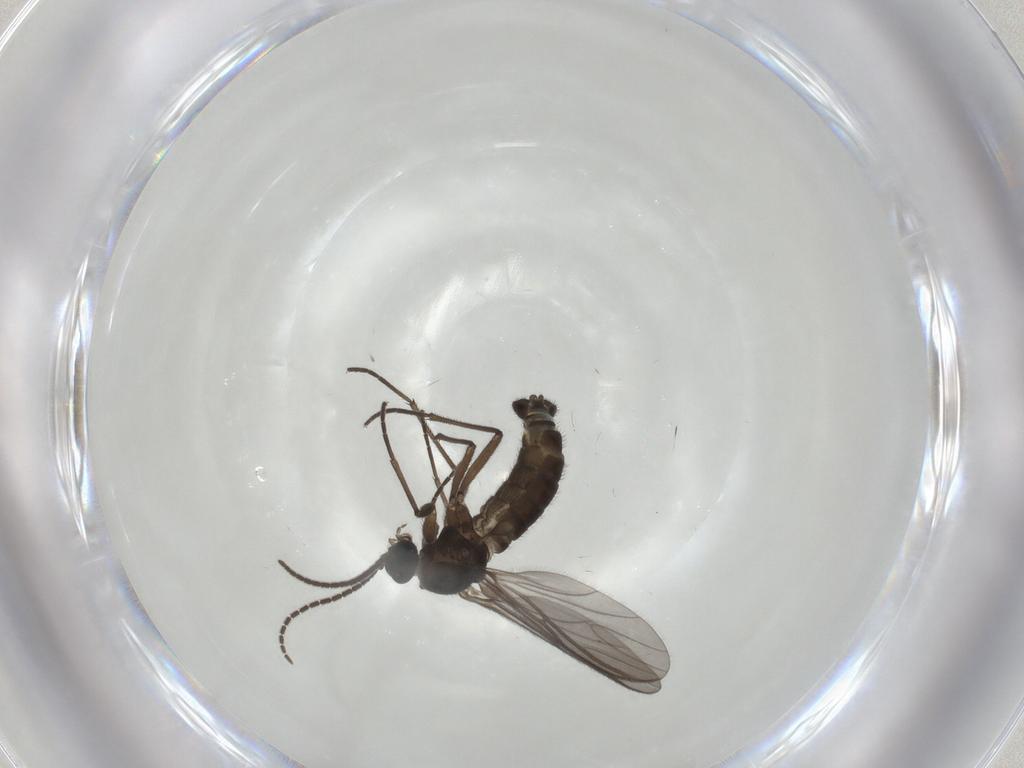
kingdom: Animalia
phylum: Arthropoda
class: Insecta
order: Diptera
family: Sciaridae
